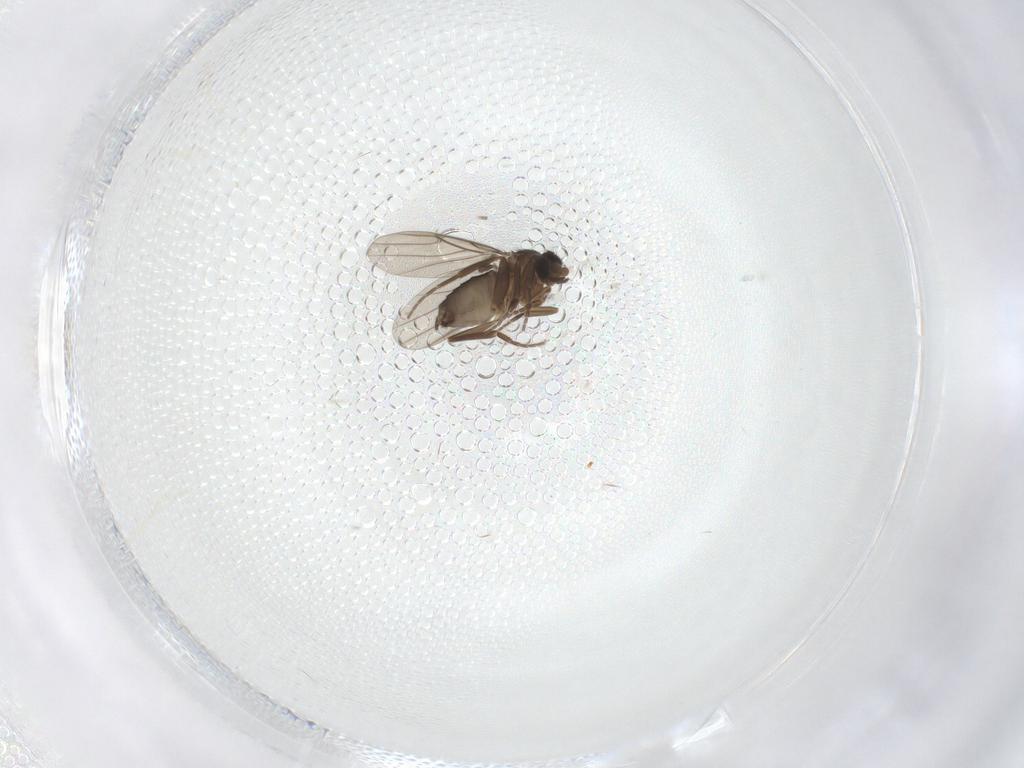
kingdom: Animalia
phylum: Arthropoda
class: Insecta
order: Diptera
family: Phoridae
